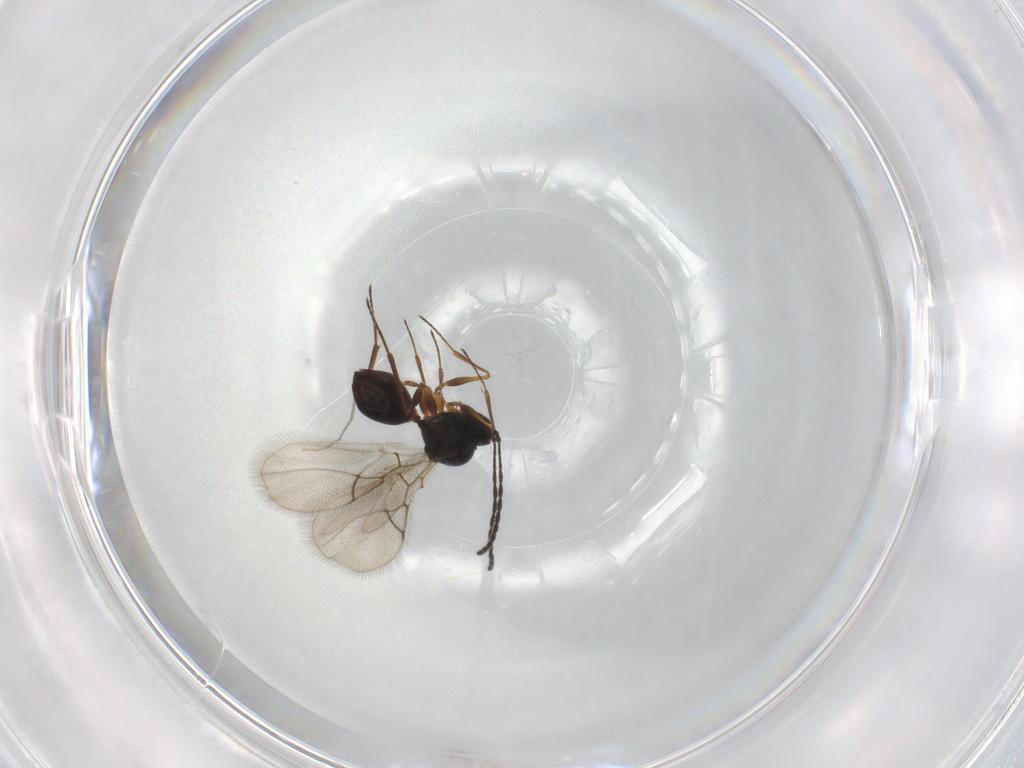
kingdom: Animalia
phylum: Arthropoda
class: Insecta
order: Hymenoptera
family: Figitidae
